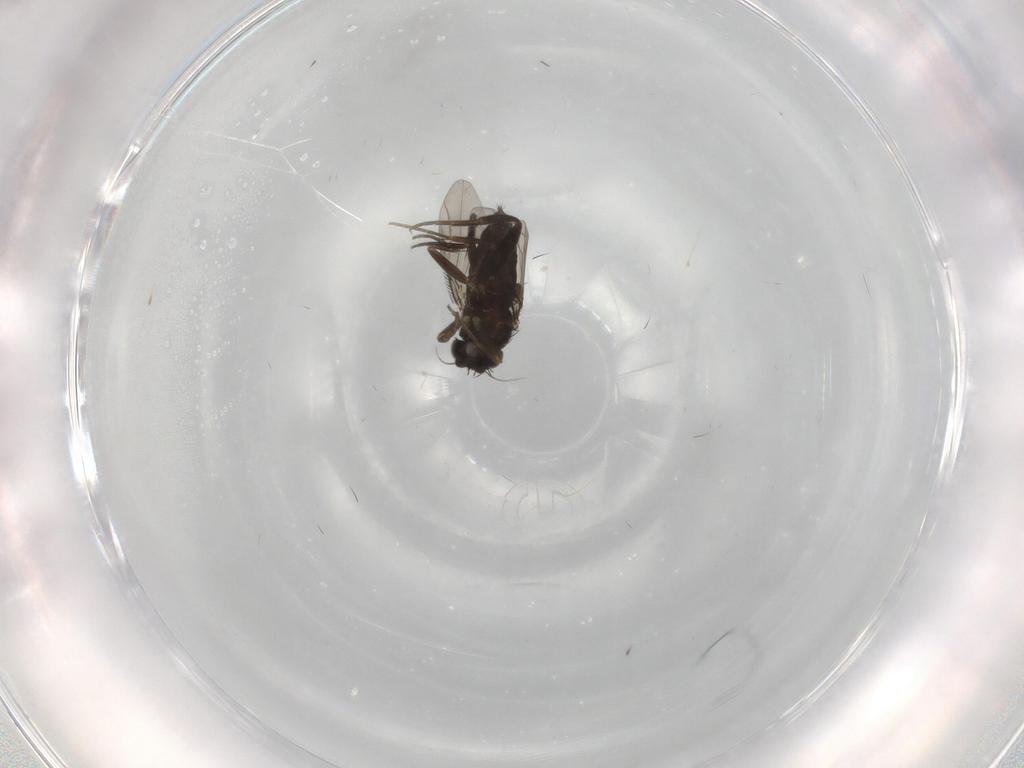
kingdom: Animalia
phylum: Arthropoda
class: Insecta
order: Diptera
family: Phoridae
